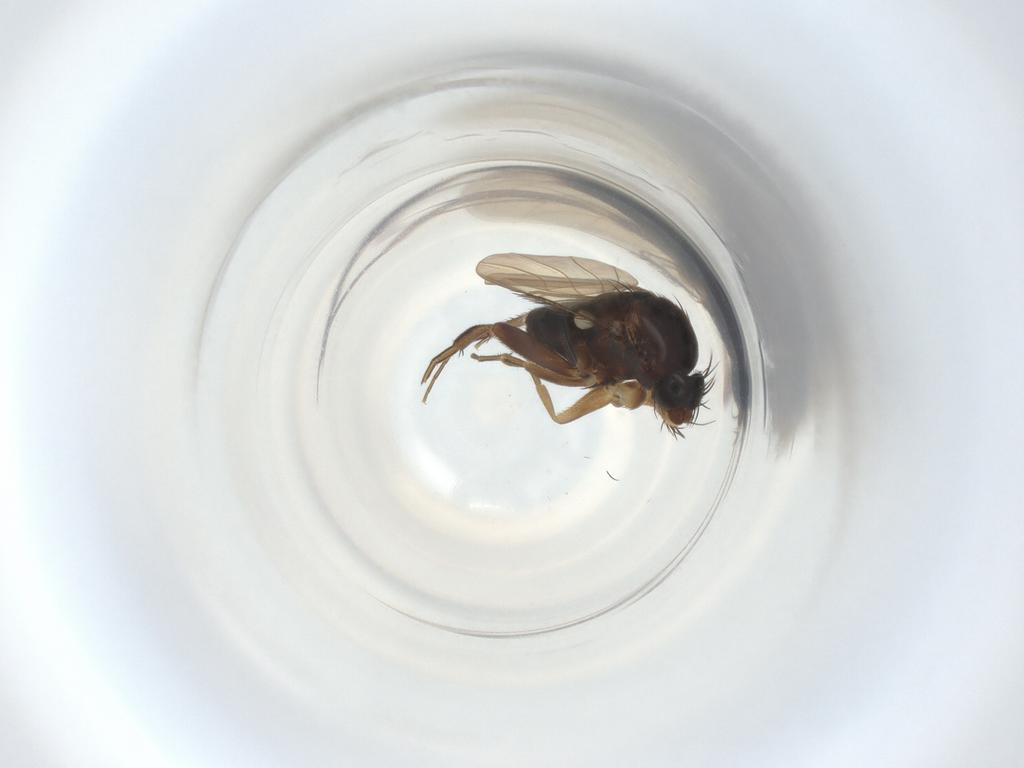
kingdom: Animalia
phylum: Arthropoda
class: Insecta
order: Diptera
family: Phoridae
